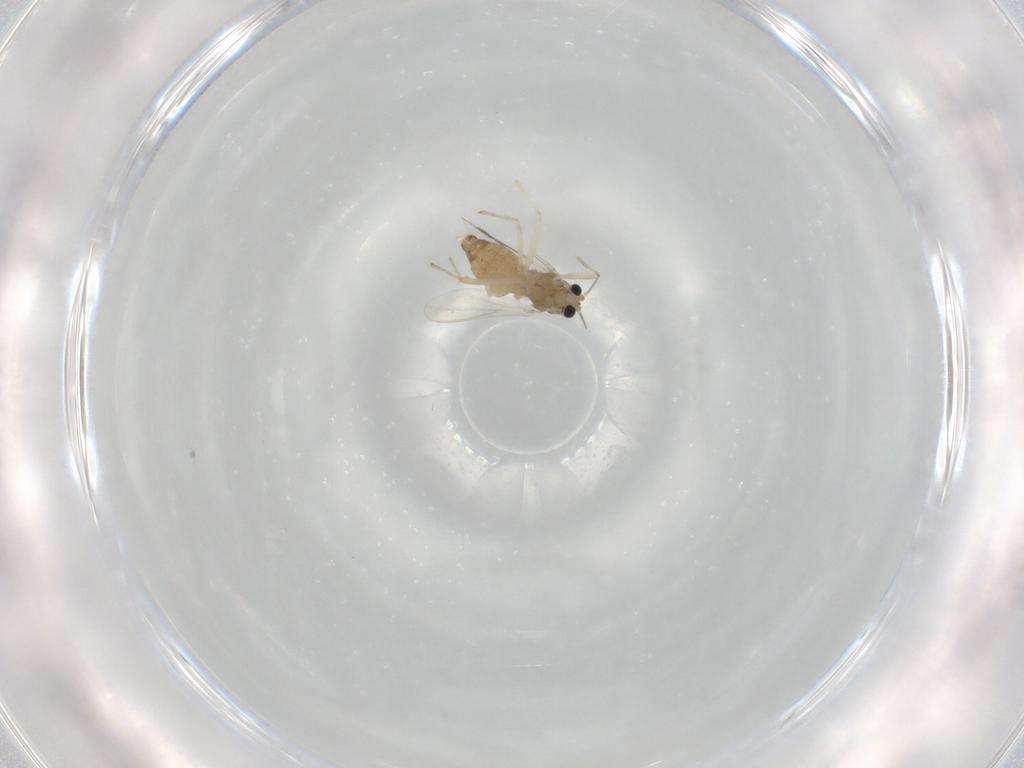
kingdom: Animalia
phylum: Arthropoda
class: Insecta
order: Diptera
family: Chironomidae
